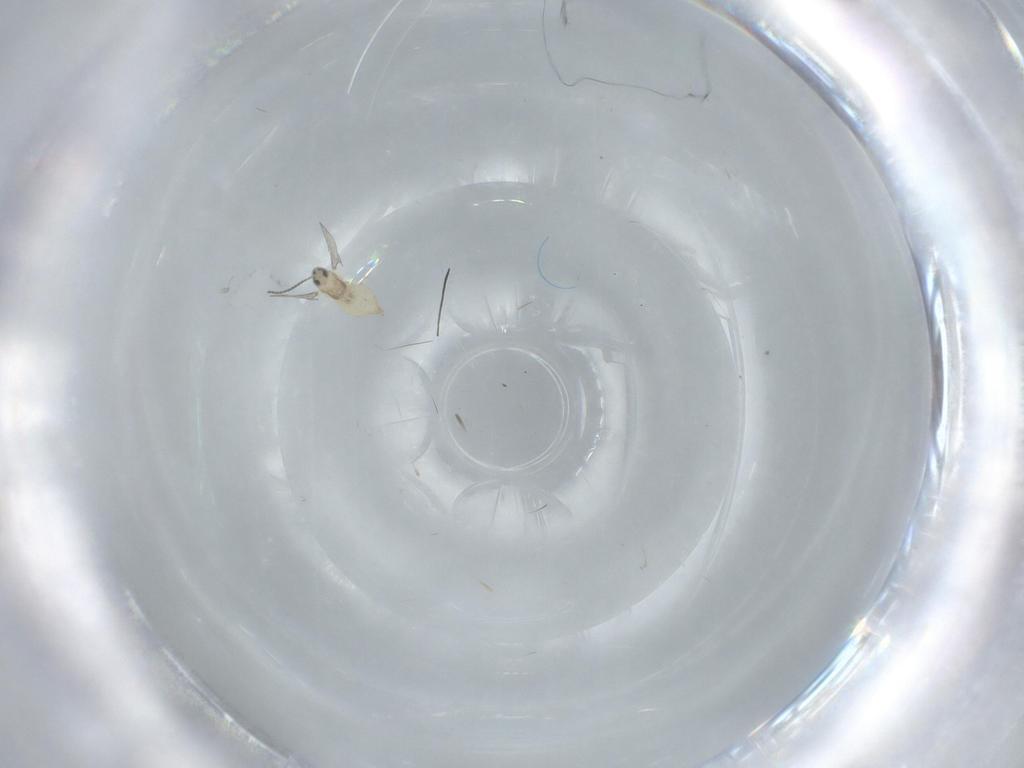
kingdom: Animalia
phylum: Arthropoda
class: Insecta
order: Diptera
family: Cecidomyiidae
